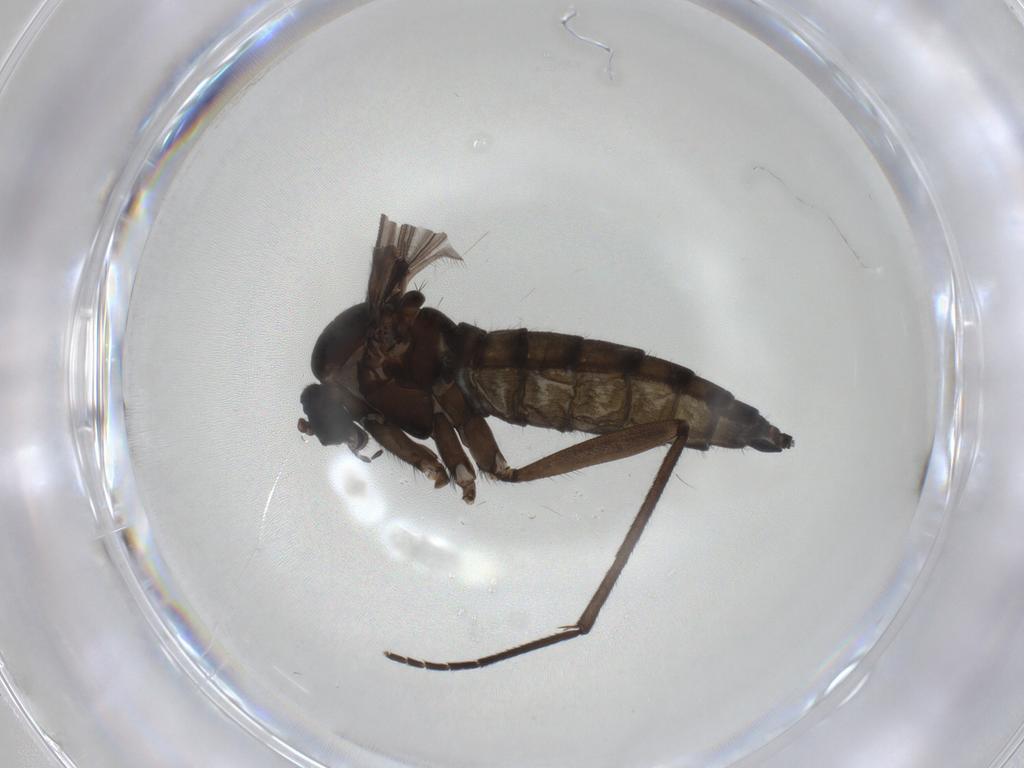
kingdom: Animalia
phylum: Arthropoda
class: Insecta
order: Diptera
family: Sciaridae
